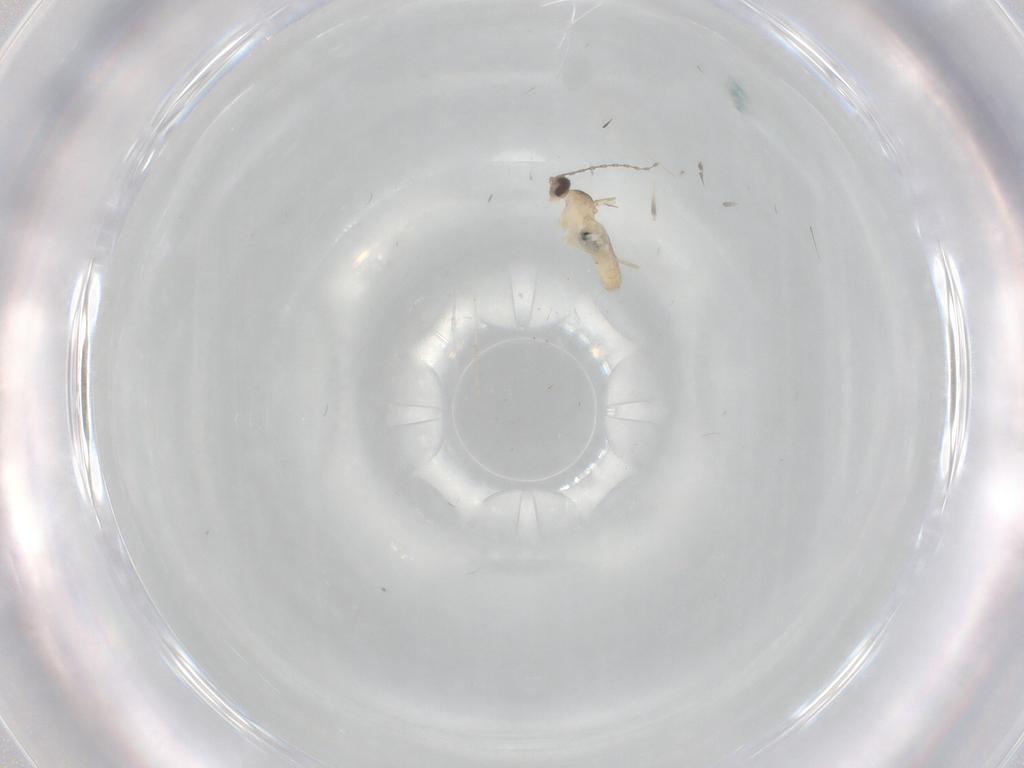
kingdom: Animalia
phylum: Arthropoda
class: Insecta
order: Diptera
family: Cecidomyiidae
